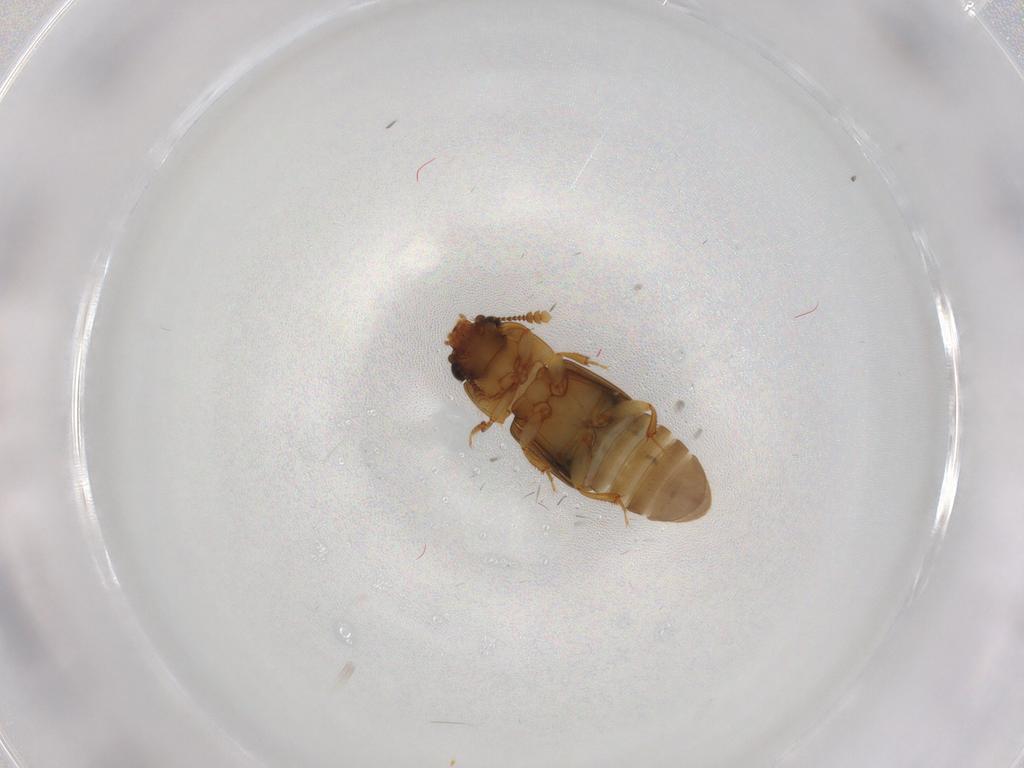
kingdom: Animalia
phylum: Arthropoda
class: Insecta
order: Coleoptera
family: Nitidulidae
